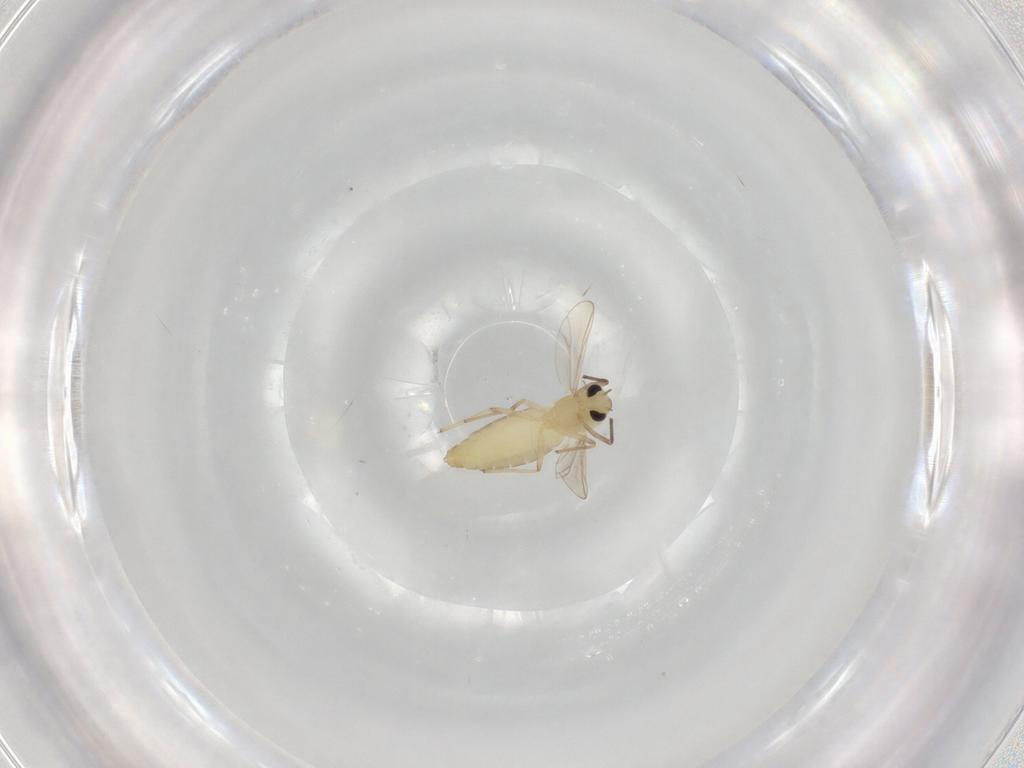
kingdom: Animalia
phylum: Arthropoda
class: Insecta
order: Diptera
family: Chironomidae
